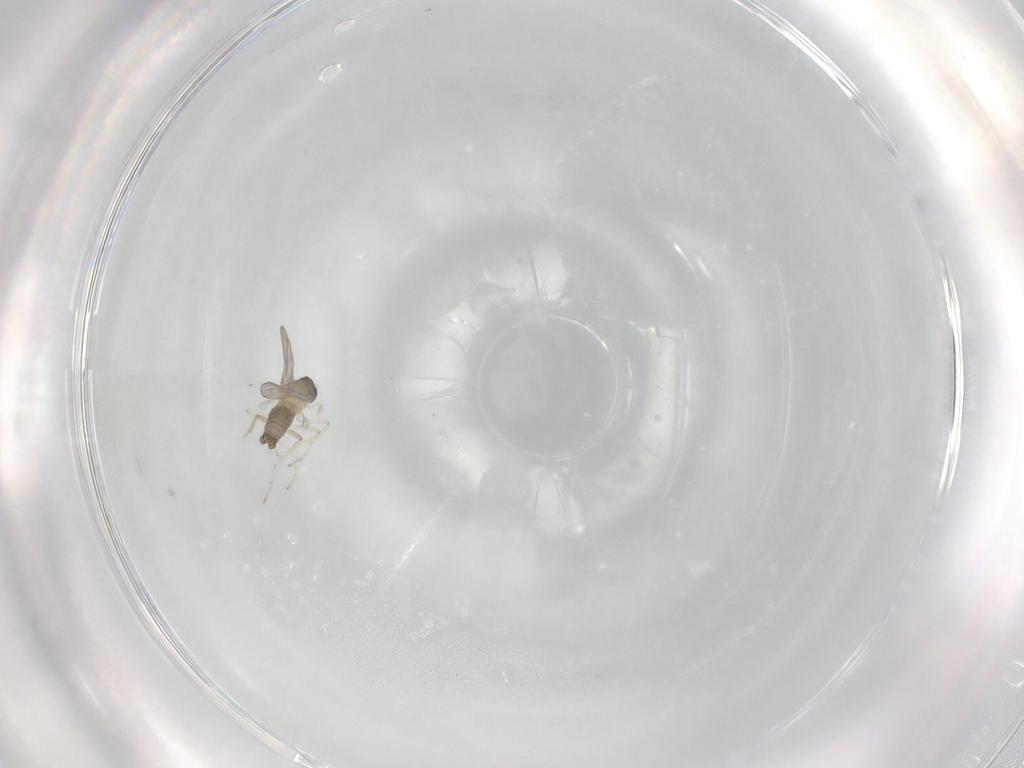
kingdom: Animalia
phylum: Arthropoda
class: Insecta
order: Diptera
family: Cecidomyiidae
